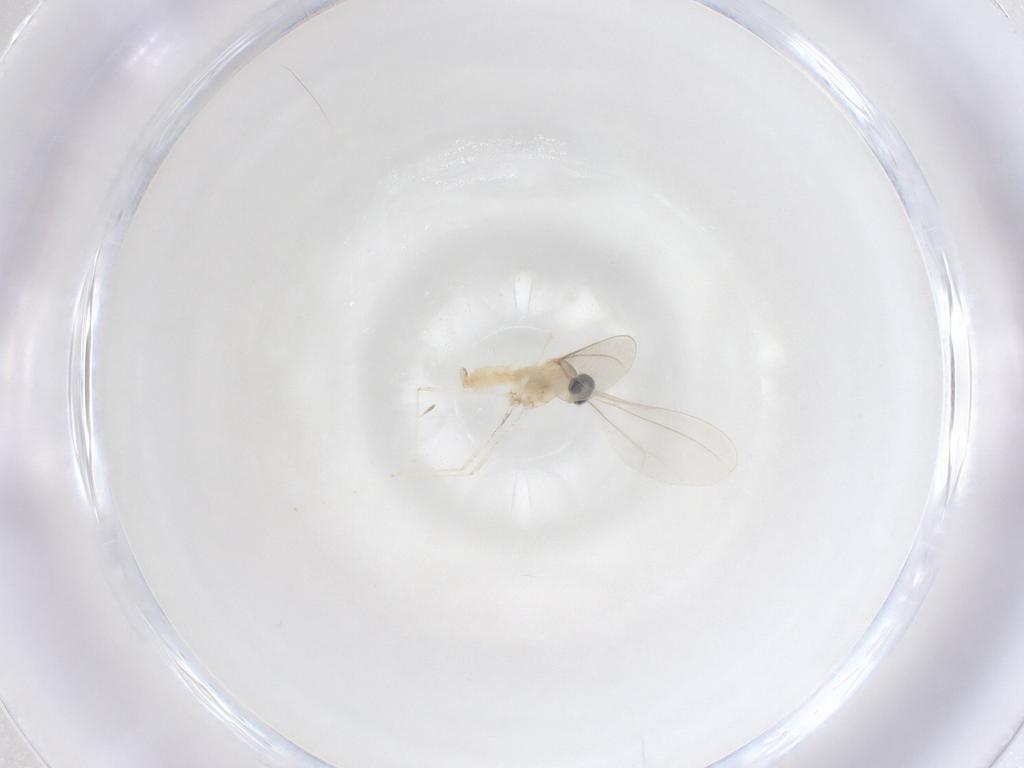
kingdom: Animalia
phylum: Arthropoda
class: Insecta
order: Diptera
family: Cecidomyiidae
